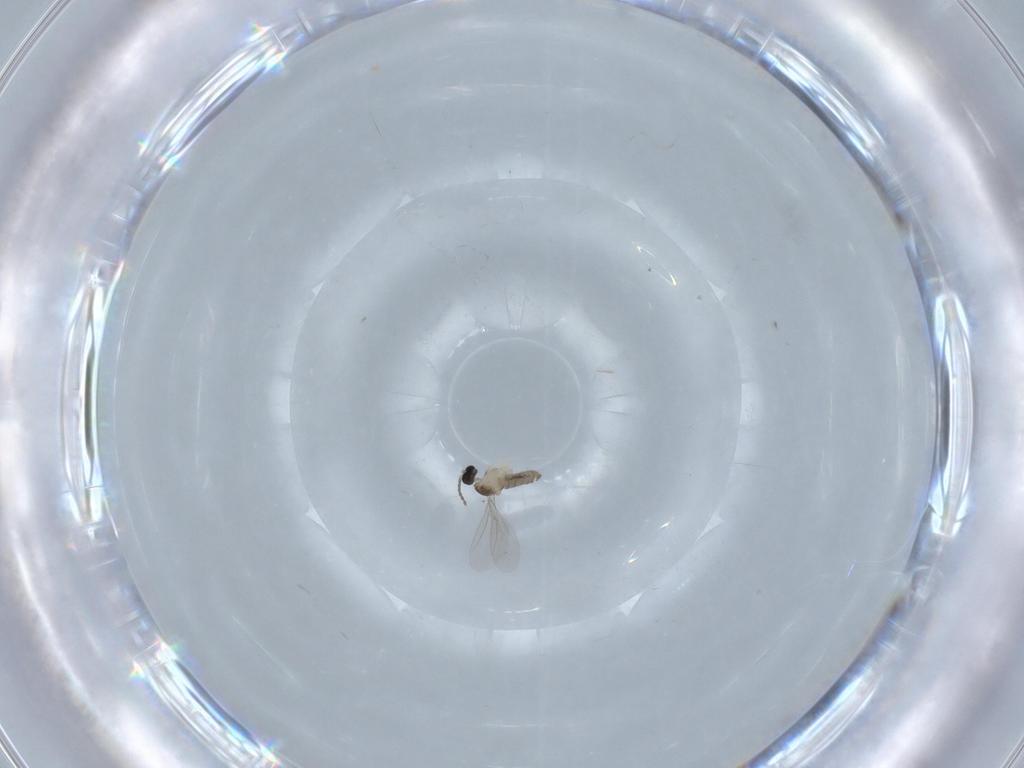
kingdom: Animalia
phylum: Arthropoda
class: Insecta
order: Diptera
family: Cecidomyiidae
